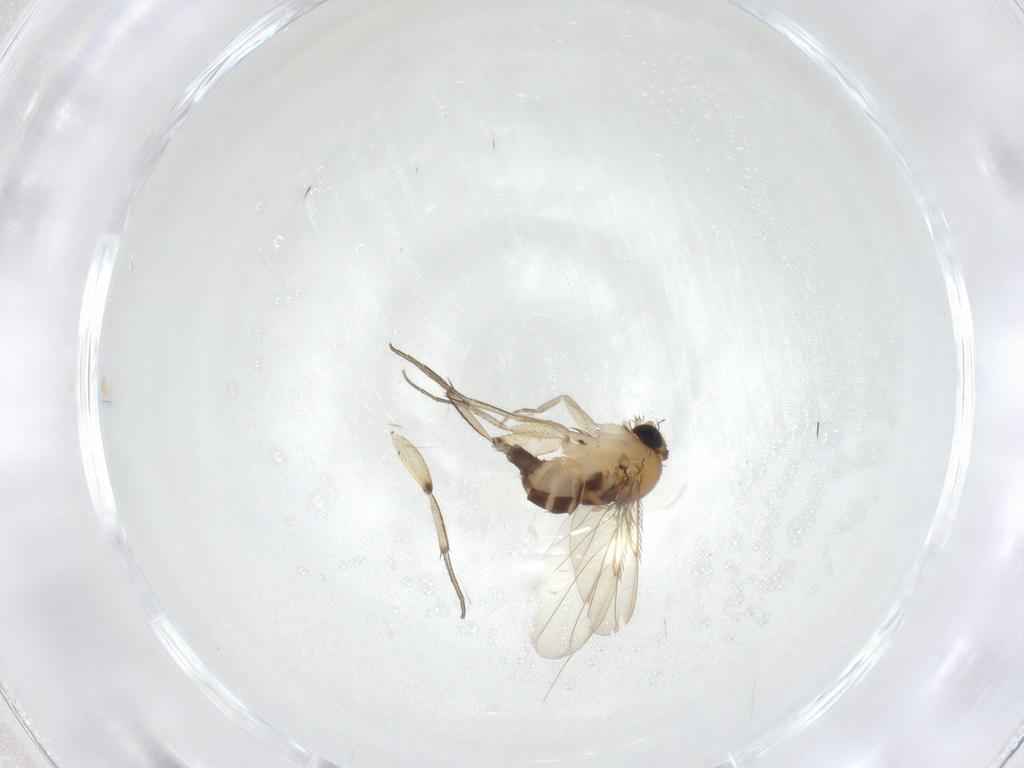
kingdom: Animalia
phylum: Arthropoda
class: Insecta
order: Diptera
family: Phoridae
